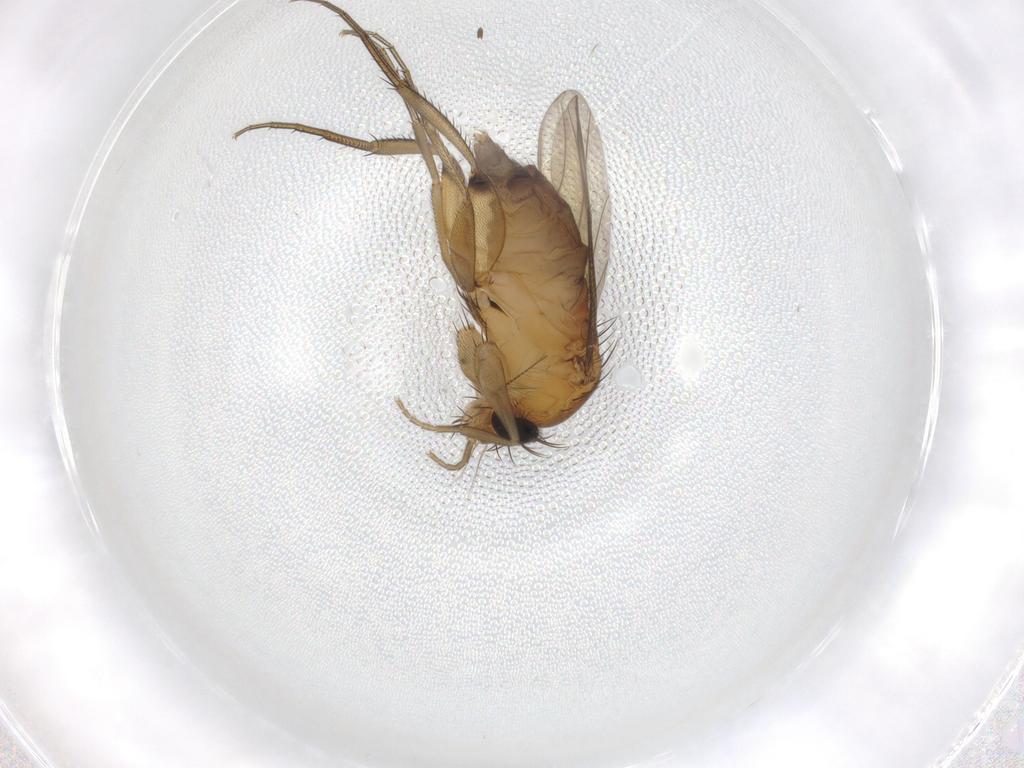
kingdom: Animalia
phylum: Arthropoda
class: Insecta
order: Diptera
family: Phoridae
